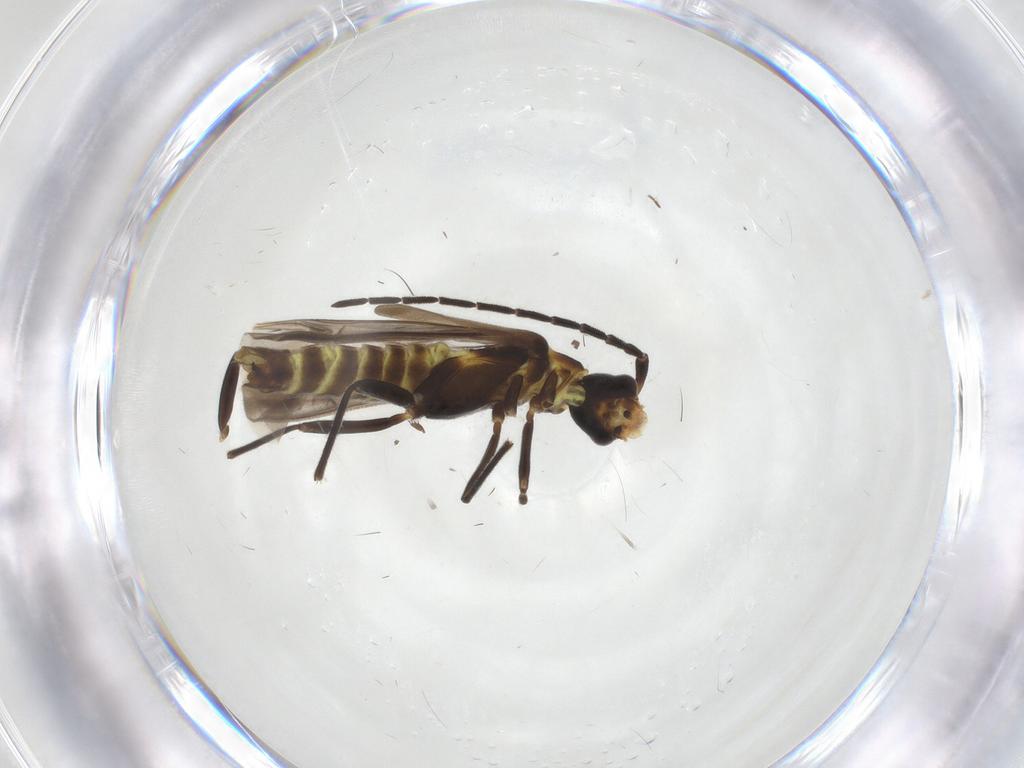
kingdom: Animalia
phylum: Arthropoda
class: Insecta
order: Coleoptera
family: Cantharidae
